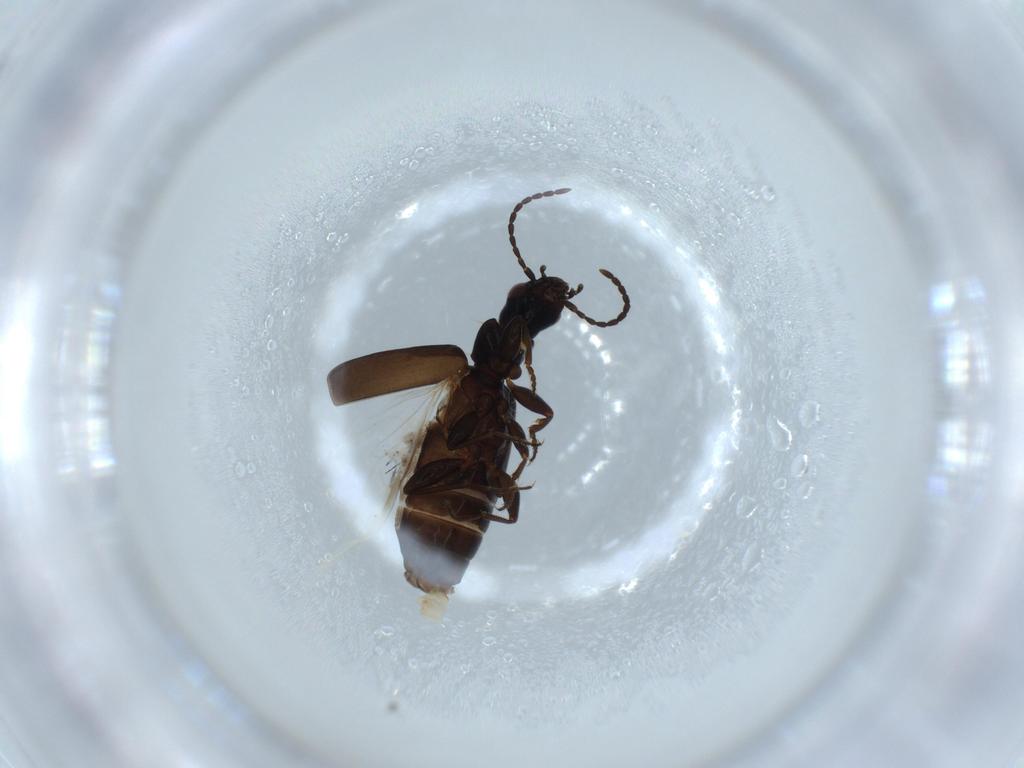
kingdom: Animalia
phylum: Arthropoda
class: Insecta
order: Coleoptera
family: Carabidae
